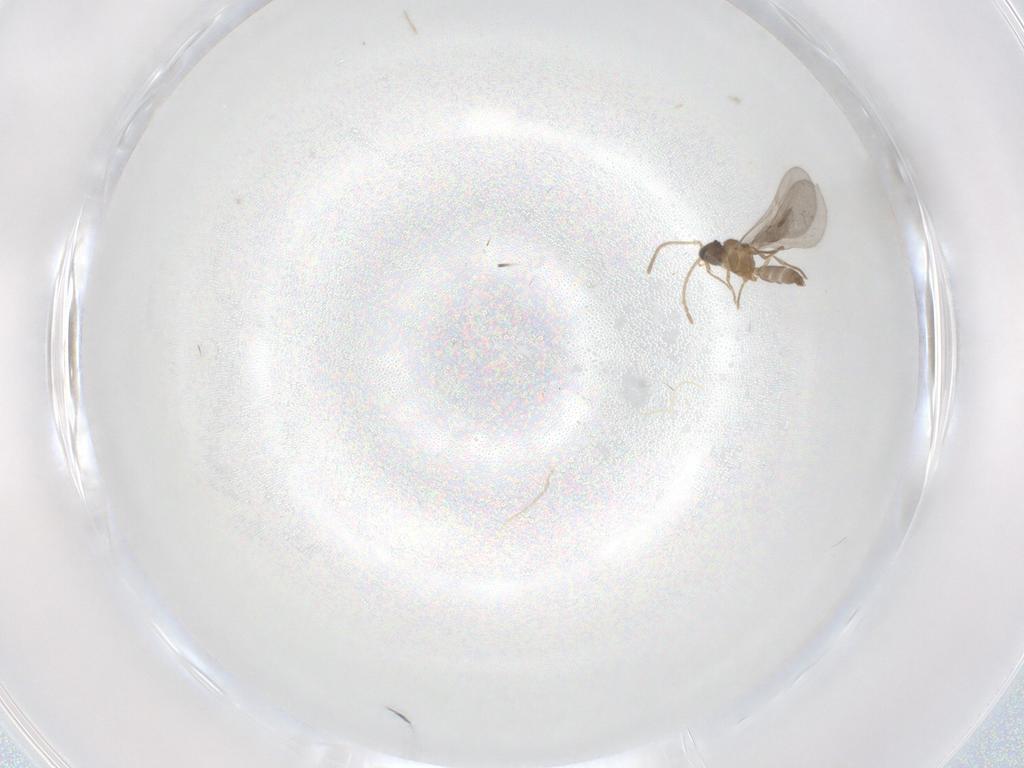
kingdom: Animalia
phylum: Arthropoda
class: Insecta
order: Hymenoptera
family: Formicidae
